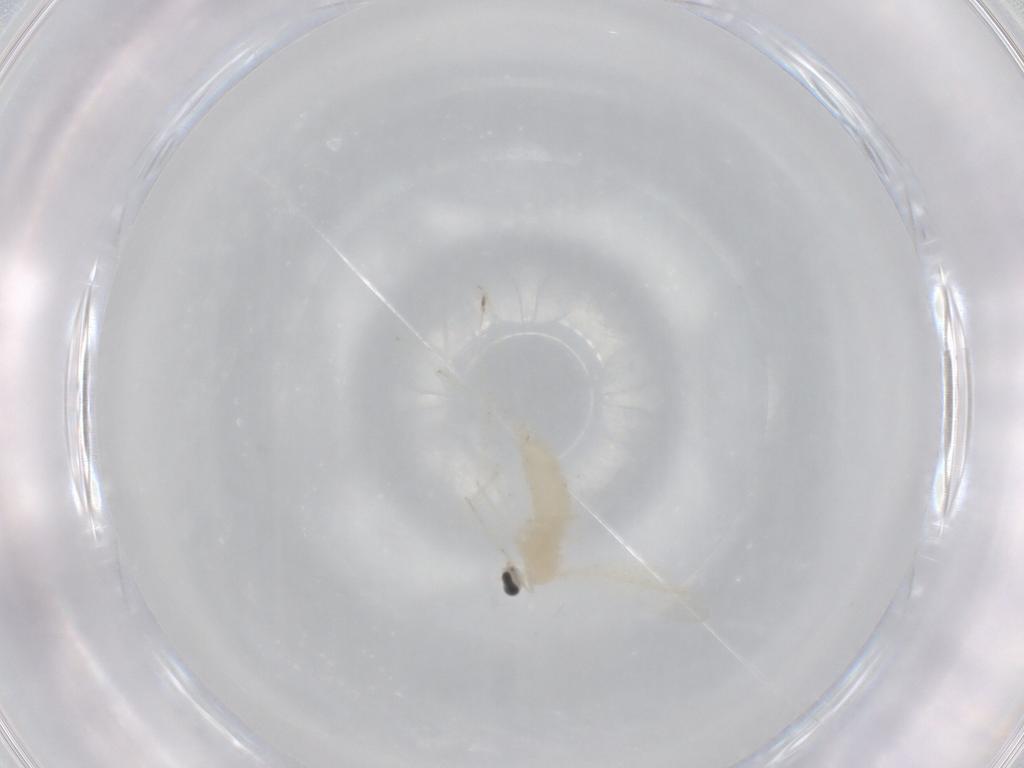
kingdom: Animalia
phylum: Arthropoda
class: Insecta
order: Diptera
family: Cecidomyiidae
